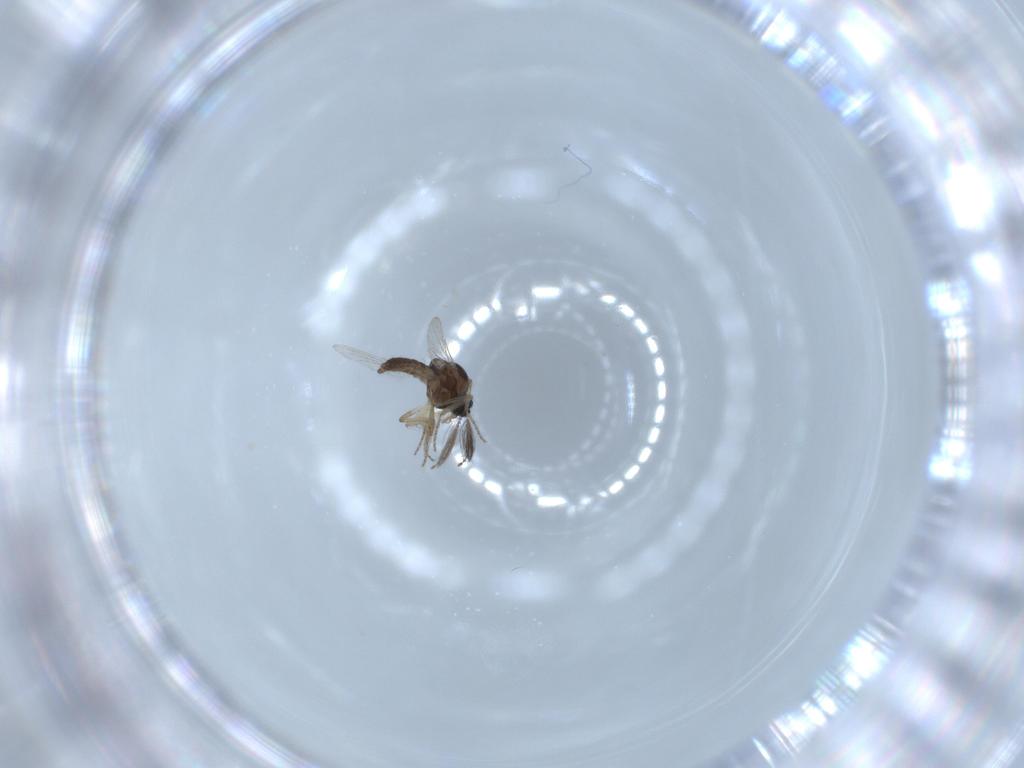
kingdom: Animalia
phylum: Arthropoda
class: Insecta
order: Diptera
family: Ceratopogonidae
